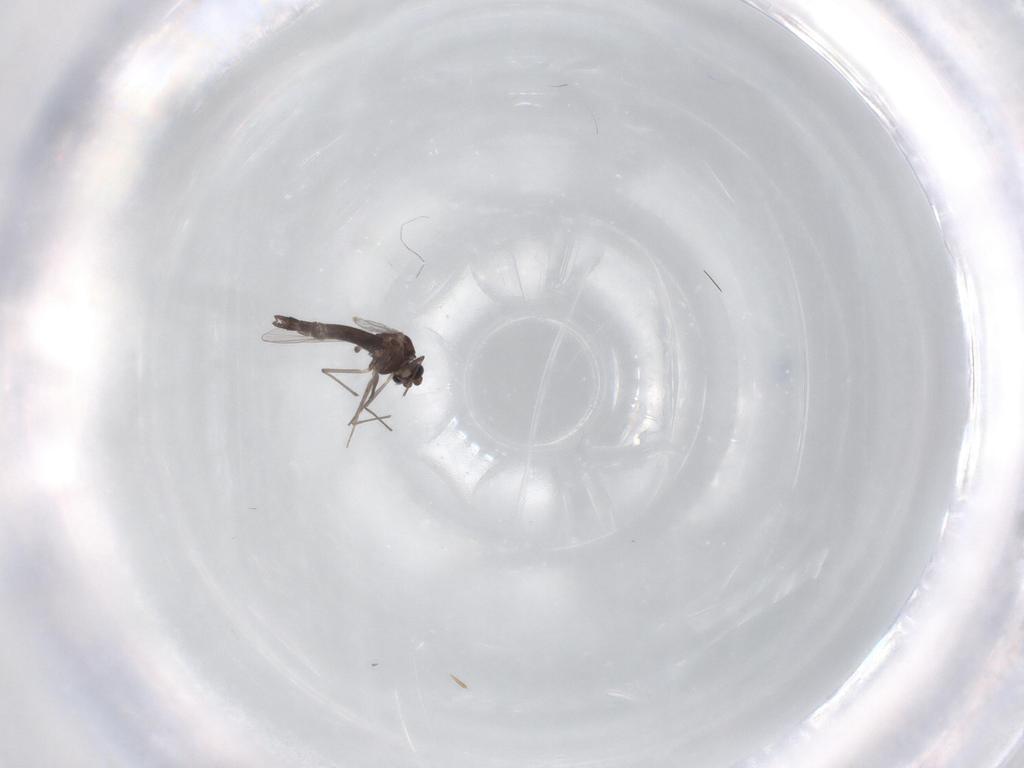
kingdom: Animalia
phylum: Arthropoda
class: Insecta
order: Diptera
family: Chironomidae
